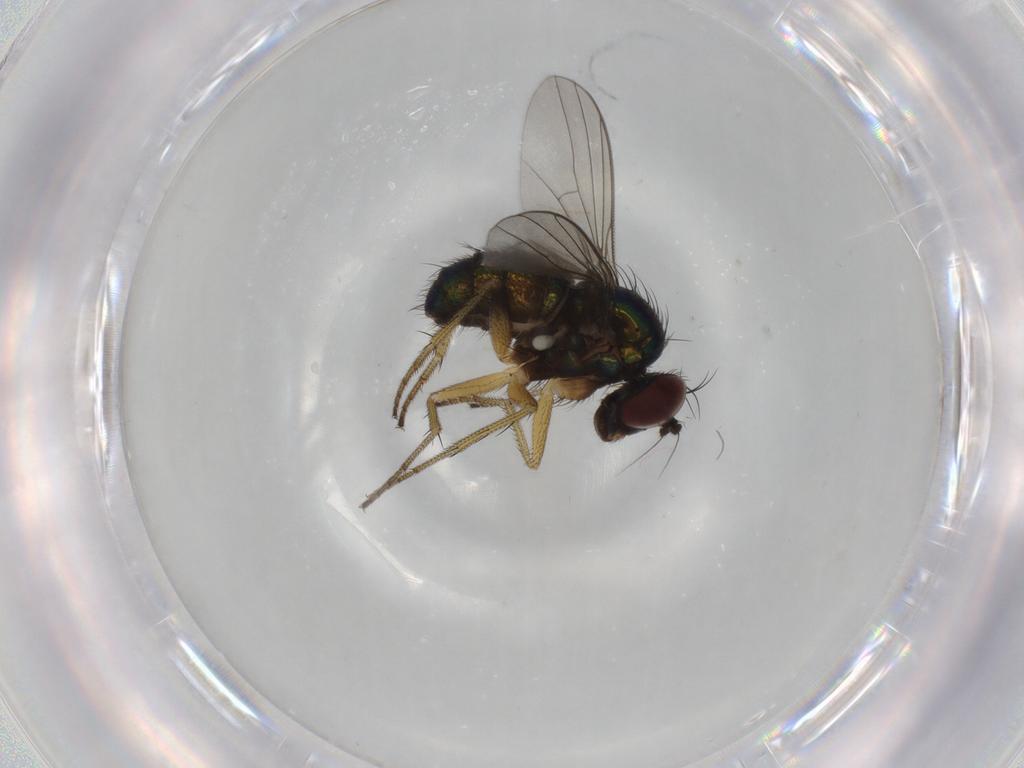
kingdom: Animalia
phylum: Arthropoda
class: Insecta
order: Diptera
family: Dolichopodidae
